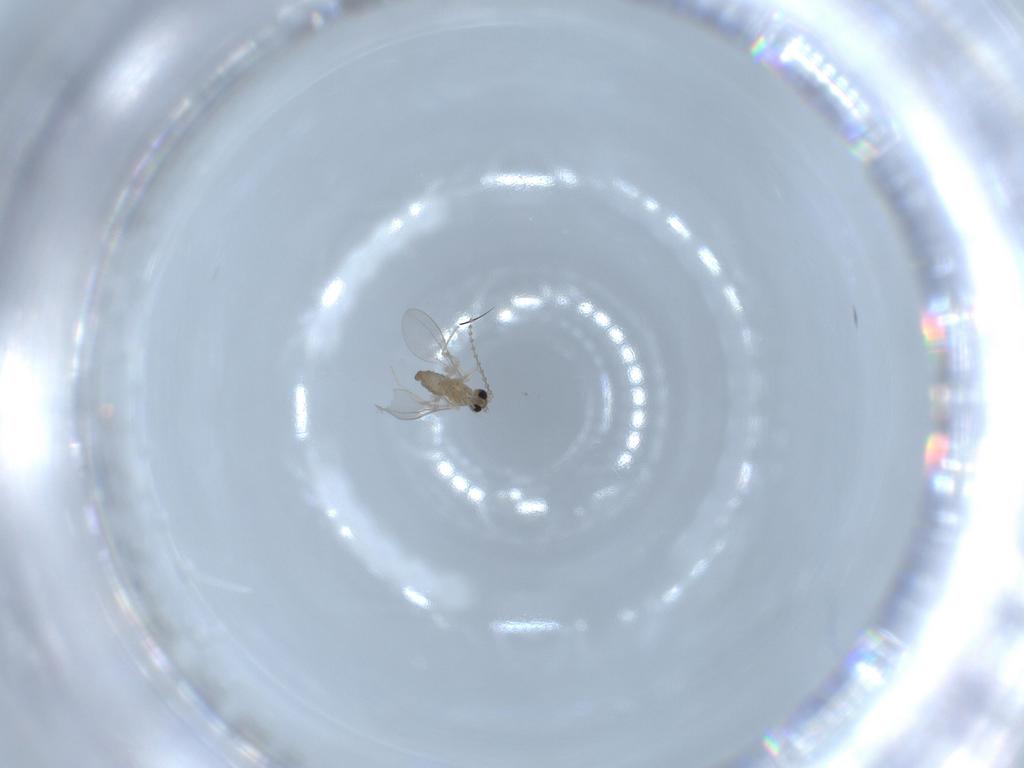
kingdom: Animalia
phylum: Arthropoda
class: Insecta
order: Diptera
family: Cecidomyiidae
